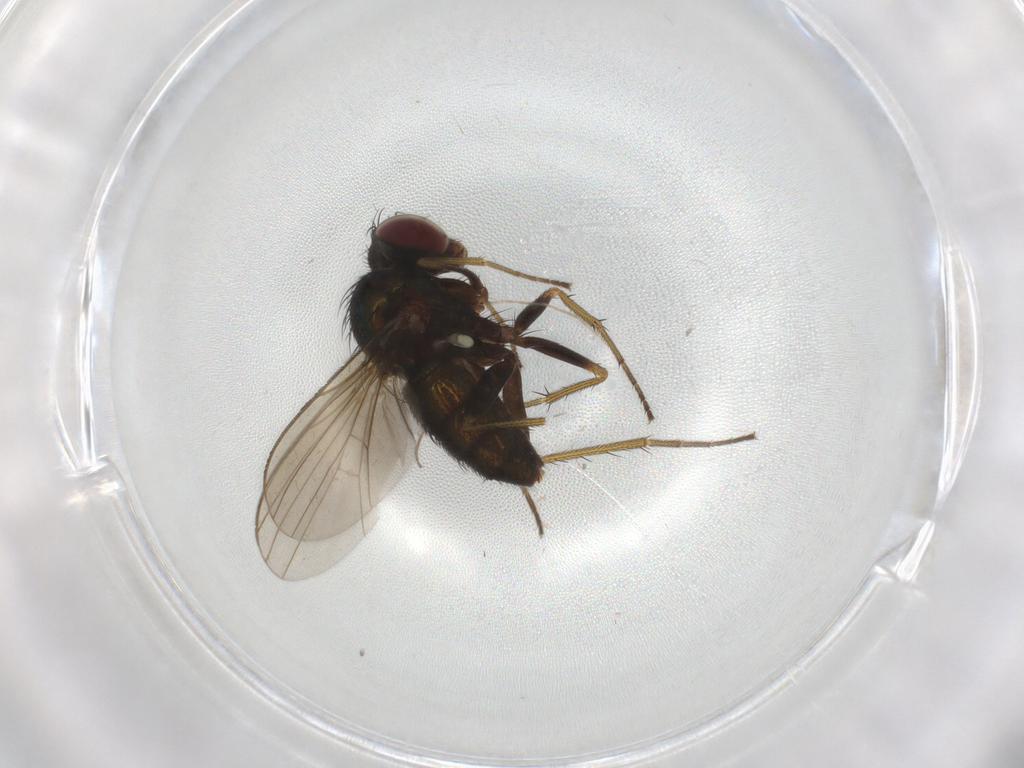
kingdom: Animalia
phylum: Arthropoda
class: Insecta
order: Diptera
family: Dolichopodidae
